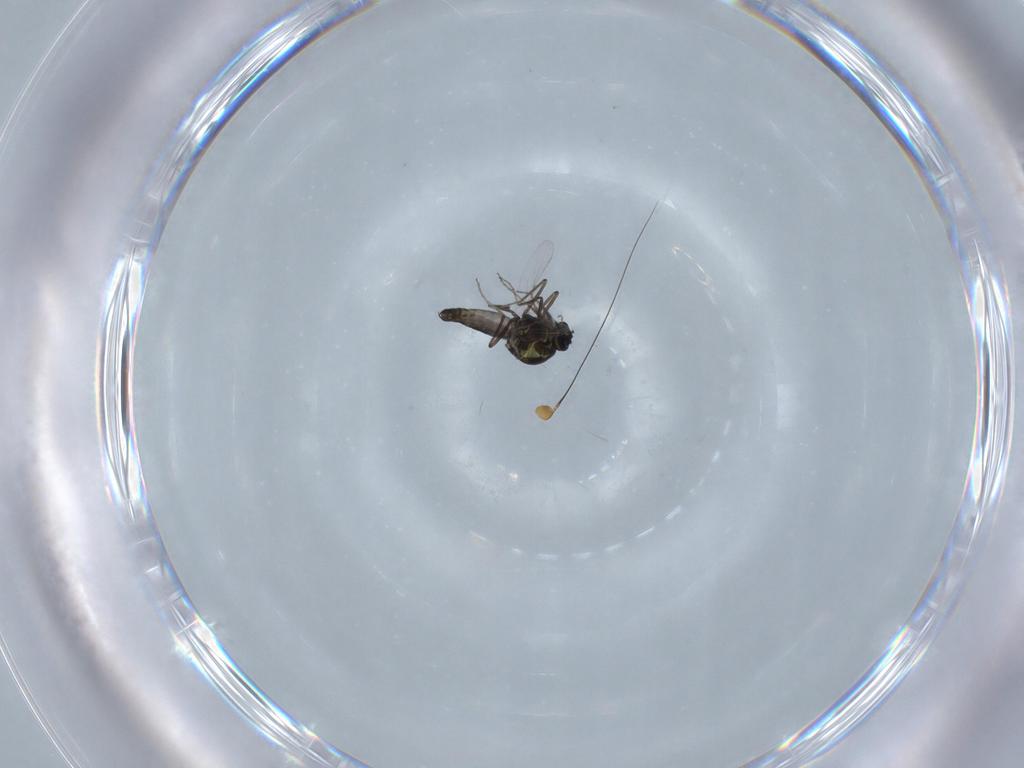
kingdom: Animalia
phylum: Arthropoda
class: Insecta
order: Diptera
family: Ceratopogonidae
